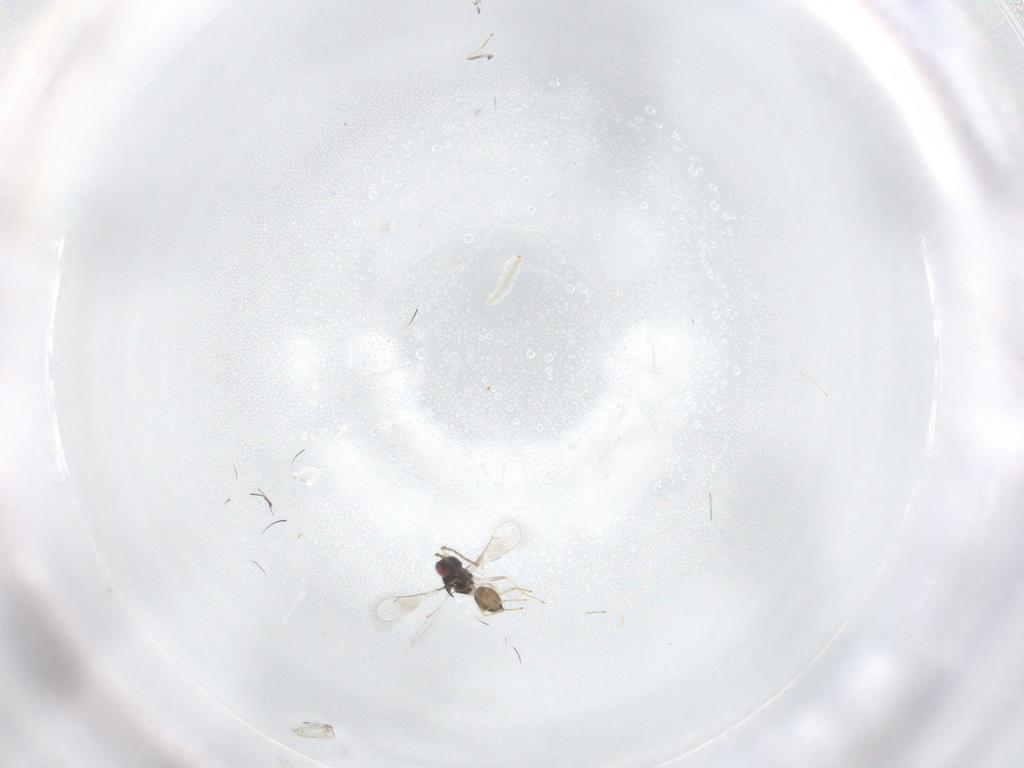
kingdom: Animalia
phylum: Arthropoda
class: Insecta
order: Hymenoptera
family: Eulophidae
